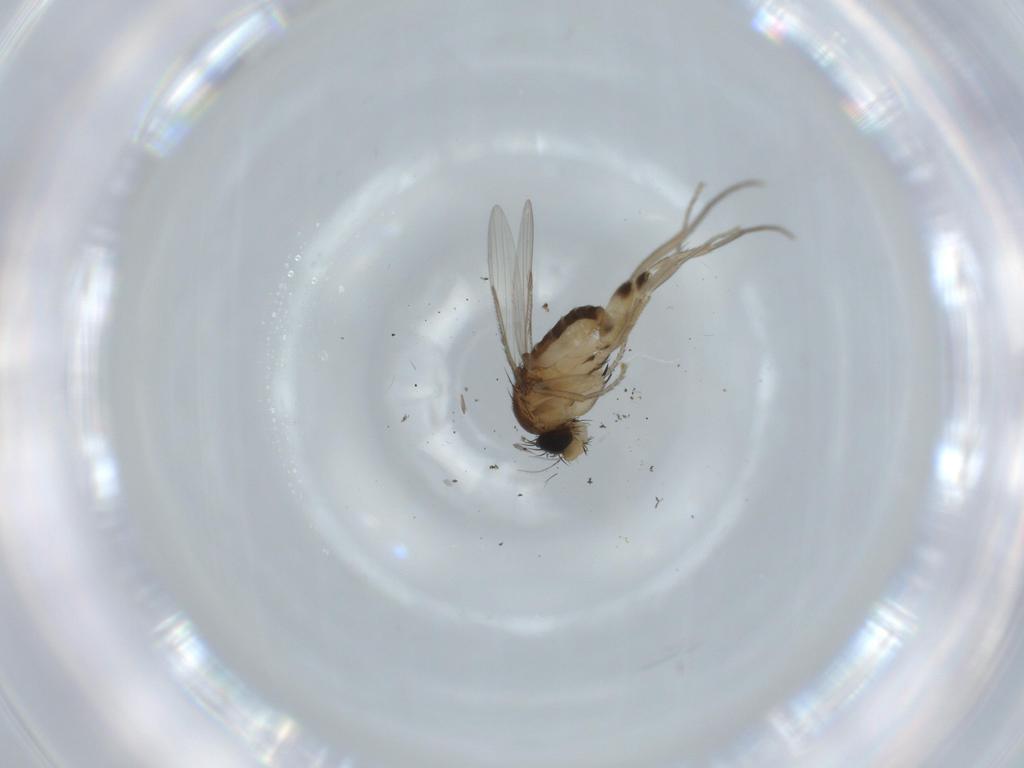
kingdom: Animalia
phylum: Arthropoda
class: Insecta
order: Diptera
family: Phoridae
